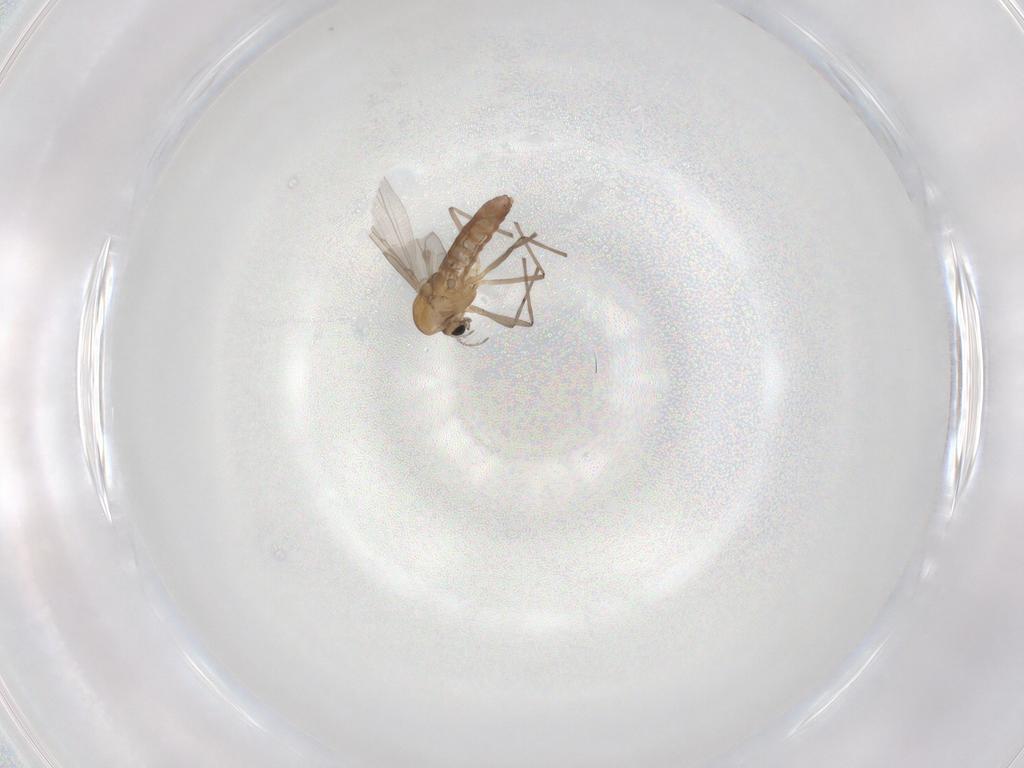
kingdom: Animalia
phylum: Arthropoda
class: Insecta
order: Diptera
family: Chironomidae
